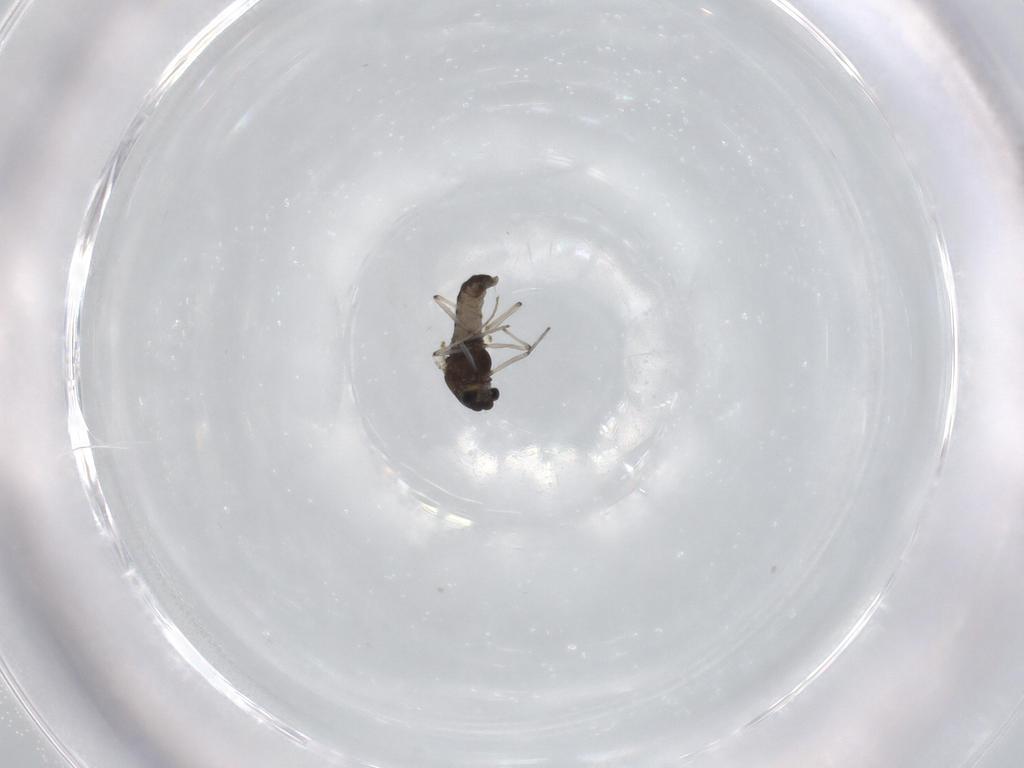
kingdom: Animalia
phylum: Arthropoda
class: Insecta
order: Diptera
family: Chironomidae
